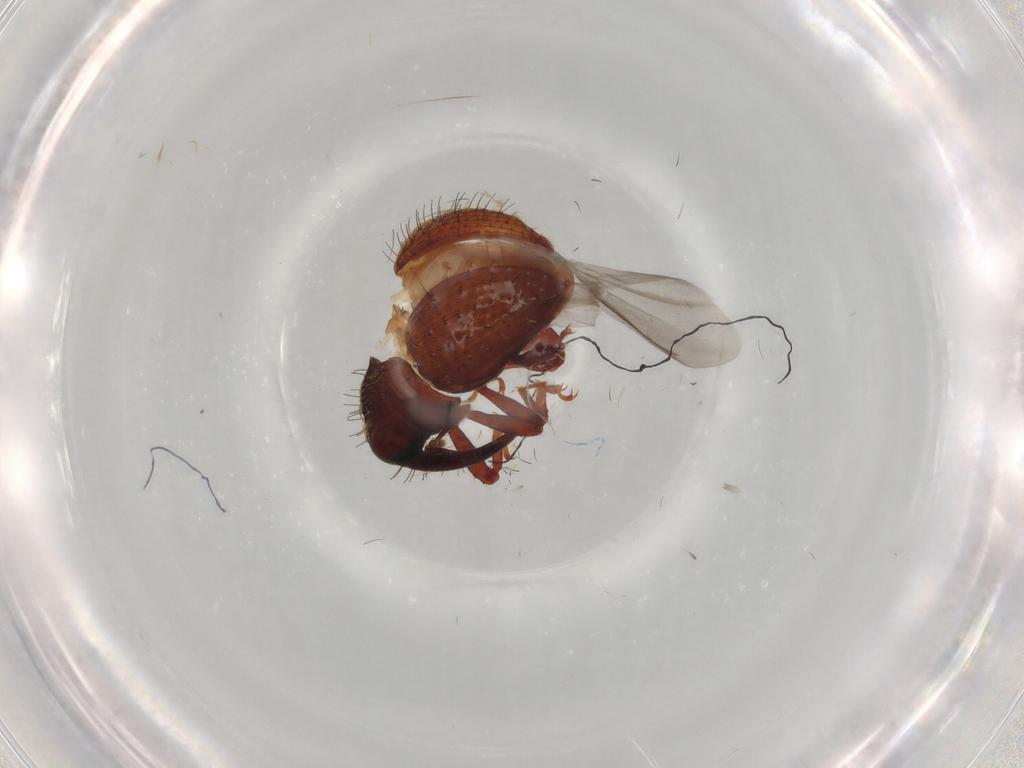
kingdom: Animalia
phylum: Arthropoda
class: Insecta
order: Coleoptera
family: Curculionidae
